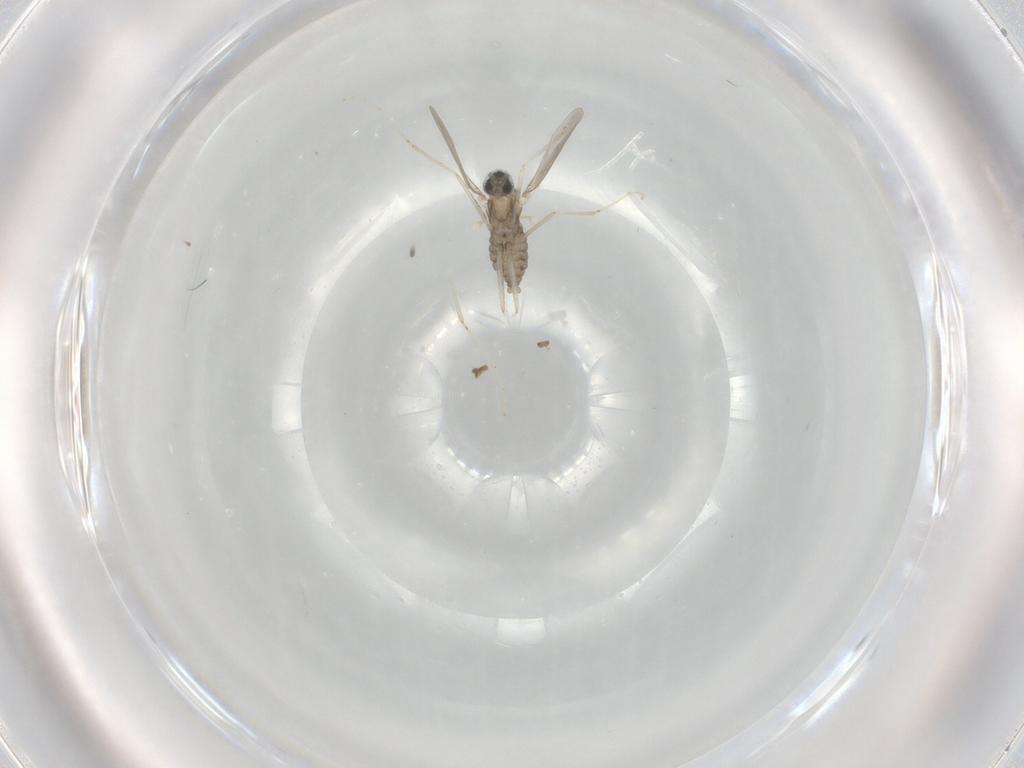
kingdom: Animalia
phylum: Arthropoda
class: Insecta
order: Diptera
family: Cecidomyiidae
